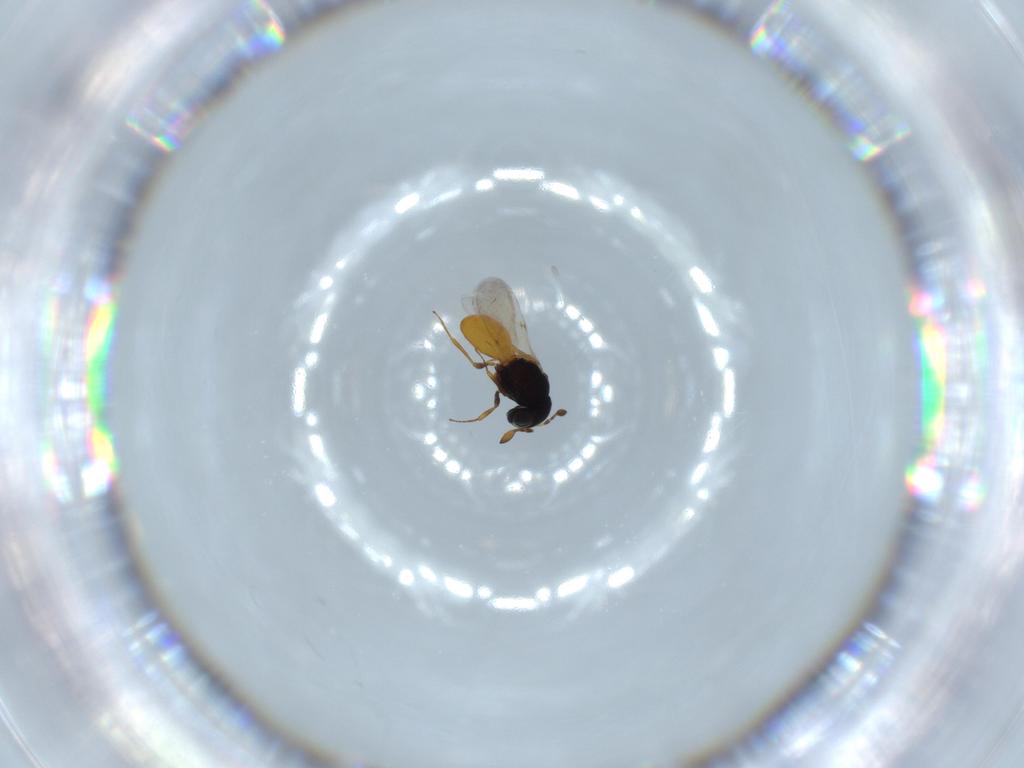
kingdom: Animalia
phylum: Arthropoda
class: Insecta
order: Hymenoptera
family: Scelionidae
